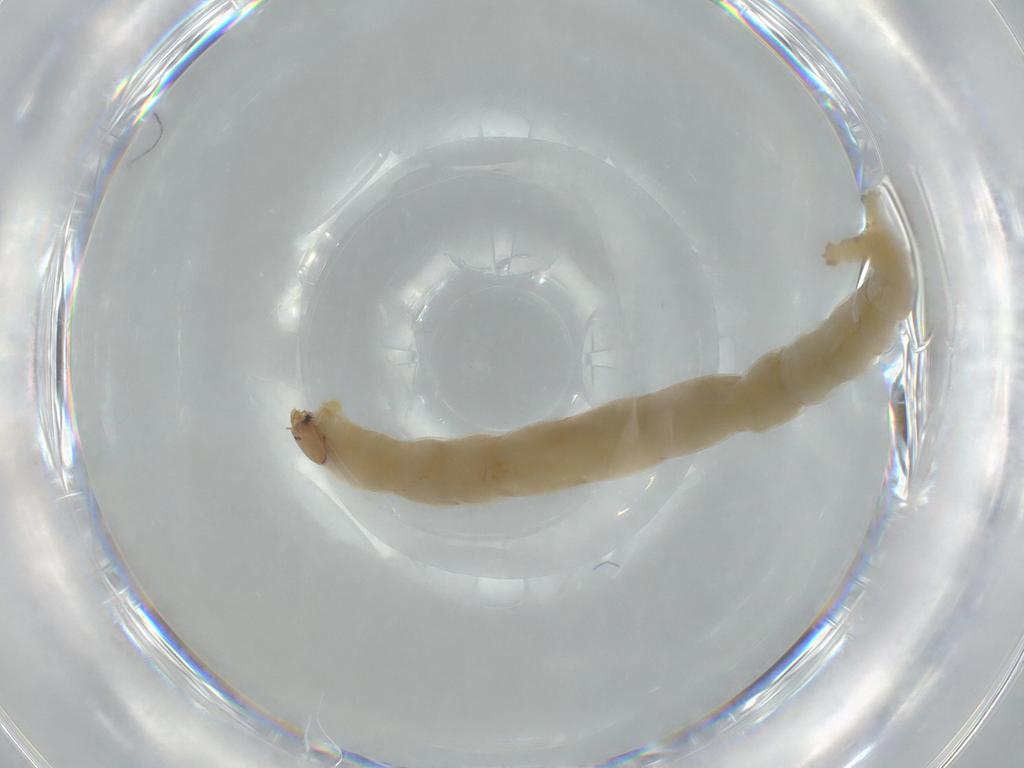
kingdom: Animalia
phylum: Arthropoda
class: Insecta
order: Diptera
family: Chironomidae
